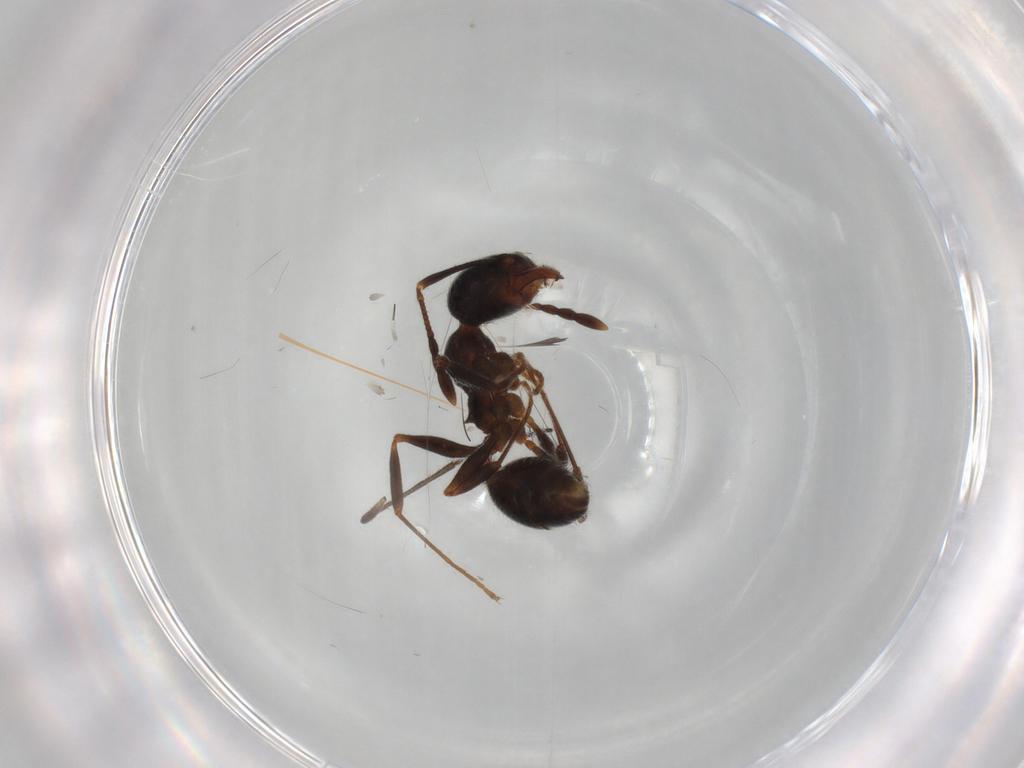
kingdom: Animalia
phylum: Arthropoda
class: Insecta
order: Hymenoptera
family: Formicidae
